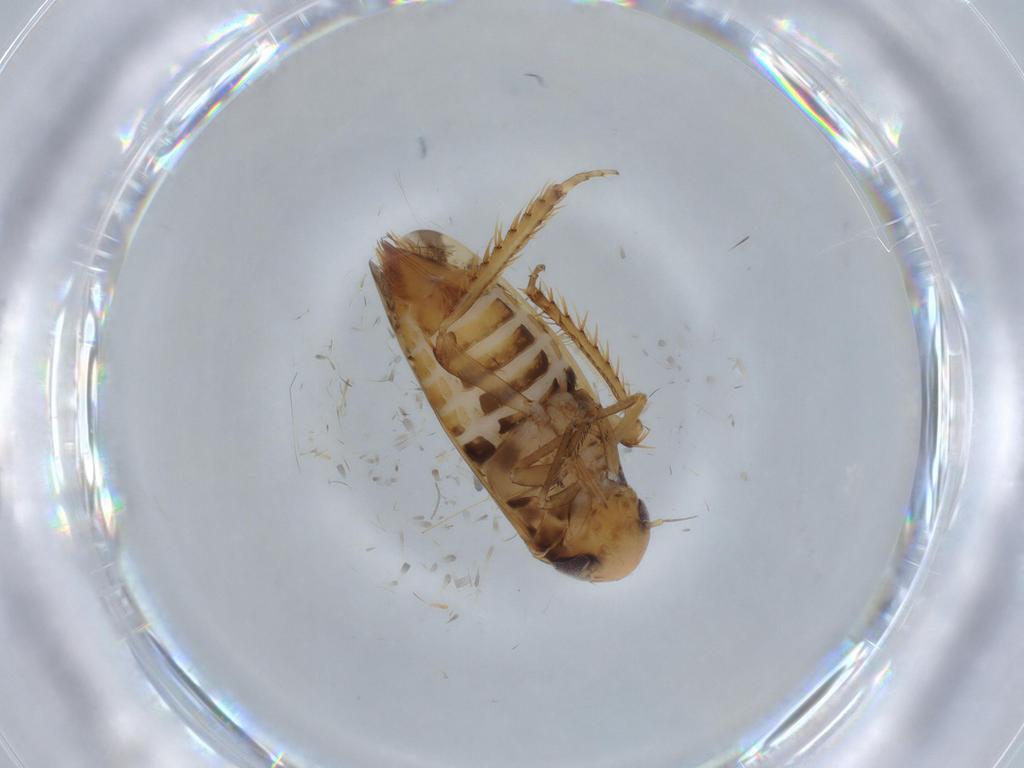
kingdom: Animalia
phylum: Arthropoda
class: Insecta
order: Hemiptera
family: Cicadellidae
